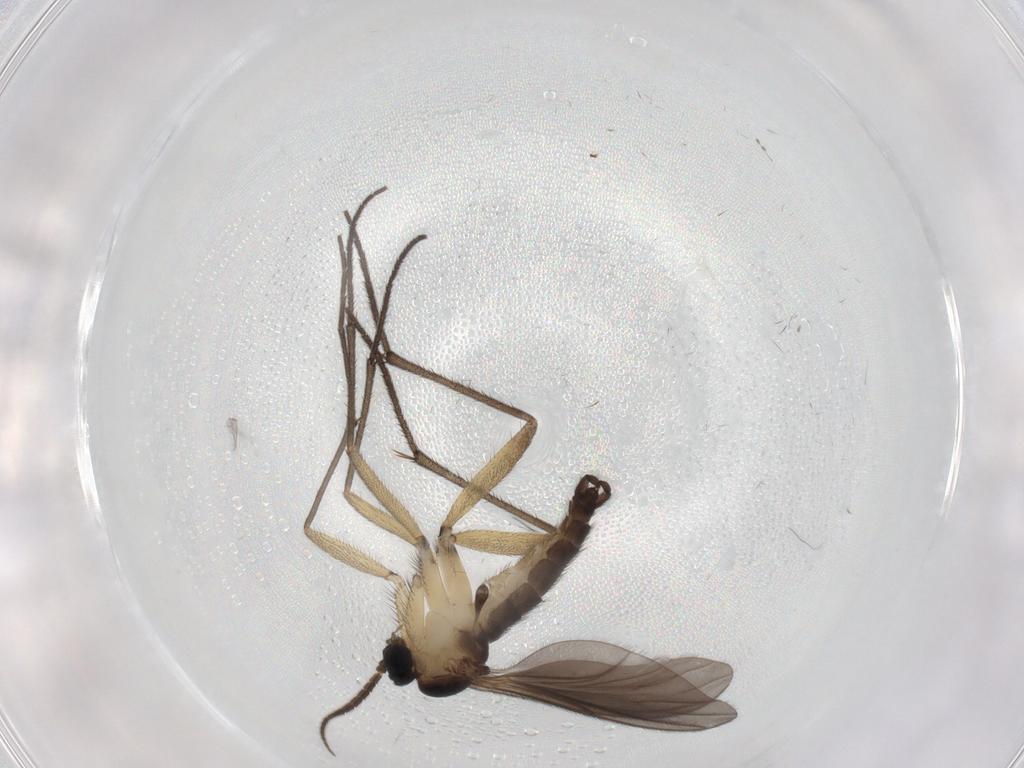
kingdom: Animalia
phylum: Arthropoda
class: Insecta
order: Diptera
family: Sciaridae
